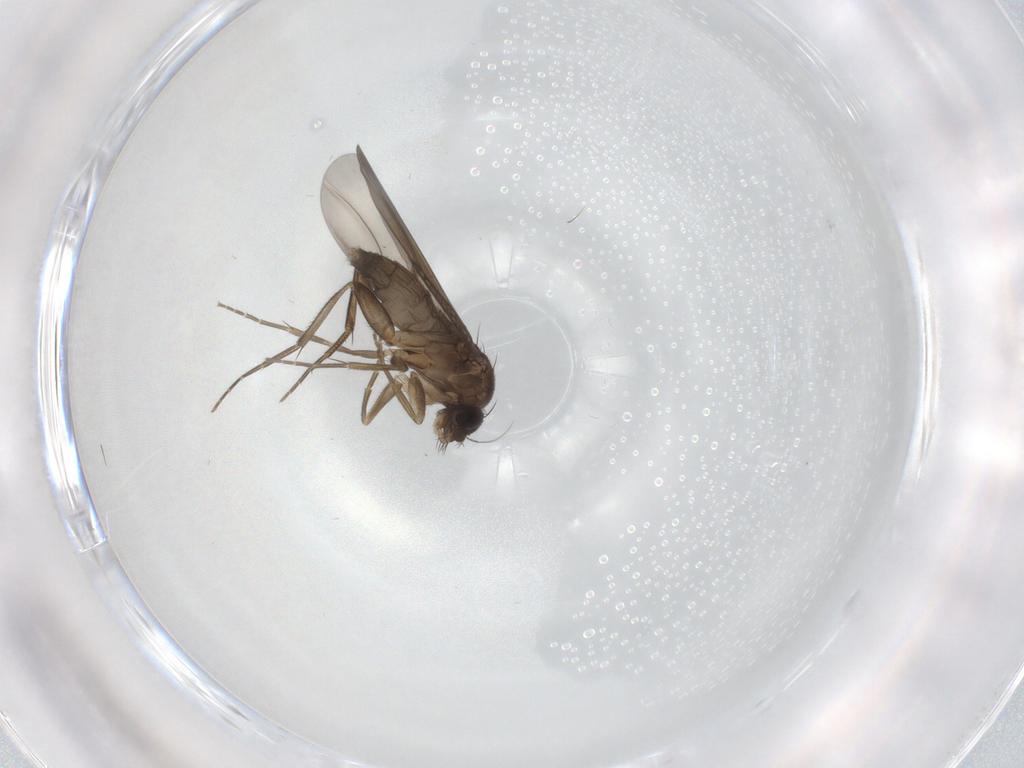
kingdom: Animalia
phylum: Arthropoda
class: Insecta
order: Diptera
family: Phoridae
